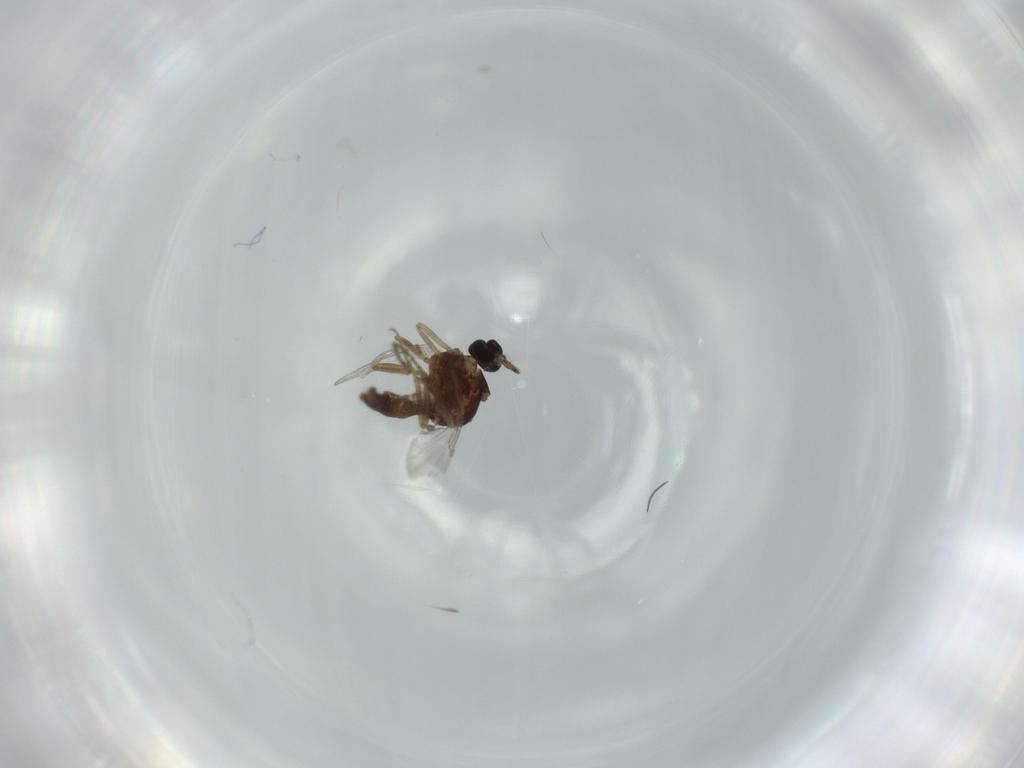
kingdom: Animalia
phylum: Arthropoda
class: Insecta
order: Diptera
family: Ceratopogonidae
